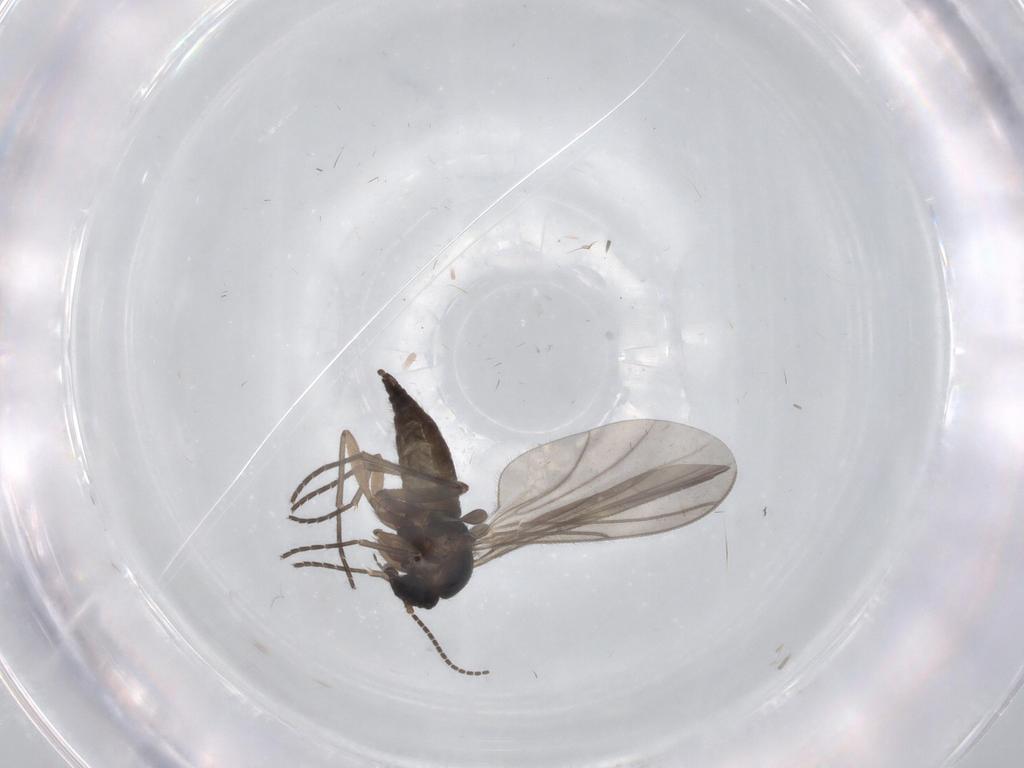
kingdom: Animalia
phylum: Arthropoda
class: Insecta
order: Diptera
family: Sciaridae
